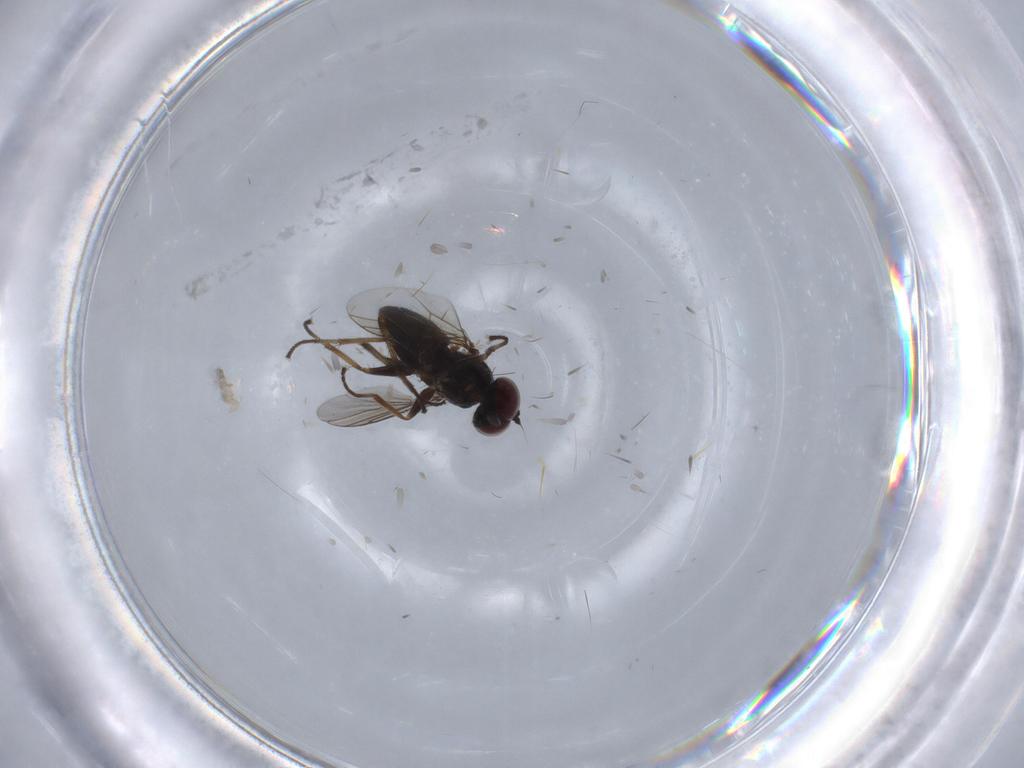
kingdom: Animalia
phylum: Arthropoda
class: Insecta
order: Diptera
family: Dolichopodidae
